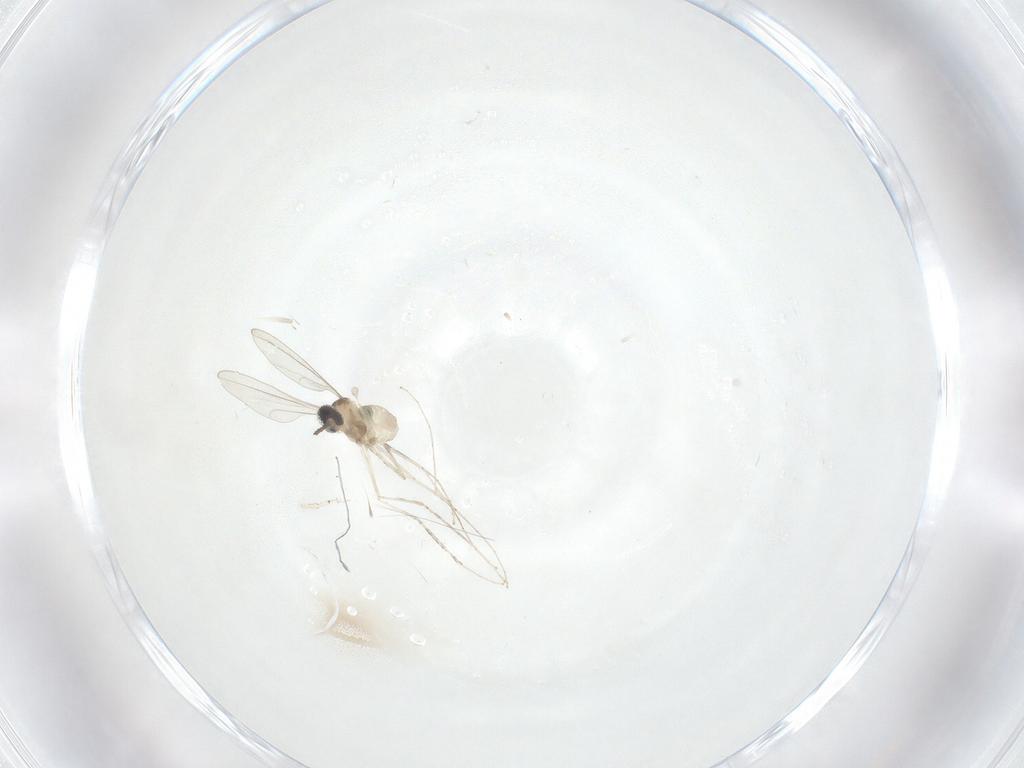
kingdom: Animalia
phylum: Arthropoda
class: Insecta
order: Diptera
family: Cecidomyiidae
